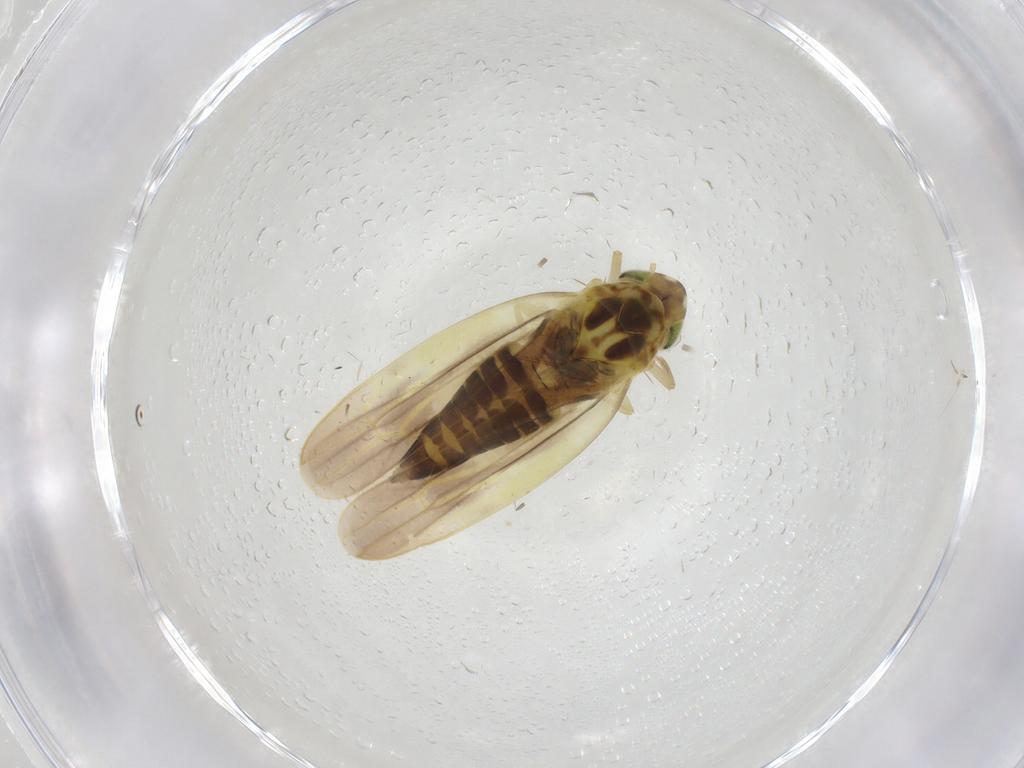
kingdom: Animalia
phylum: Arthropoda
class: Insecta
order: Hemiptera
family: Cicadellidae
